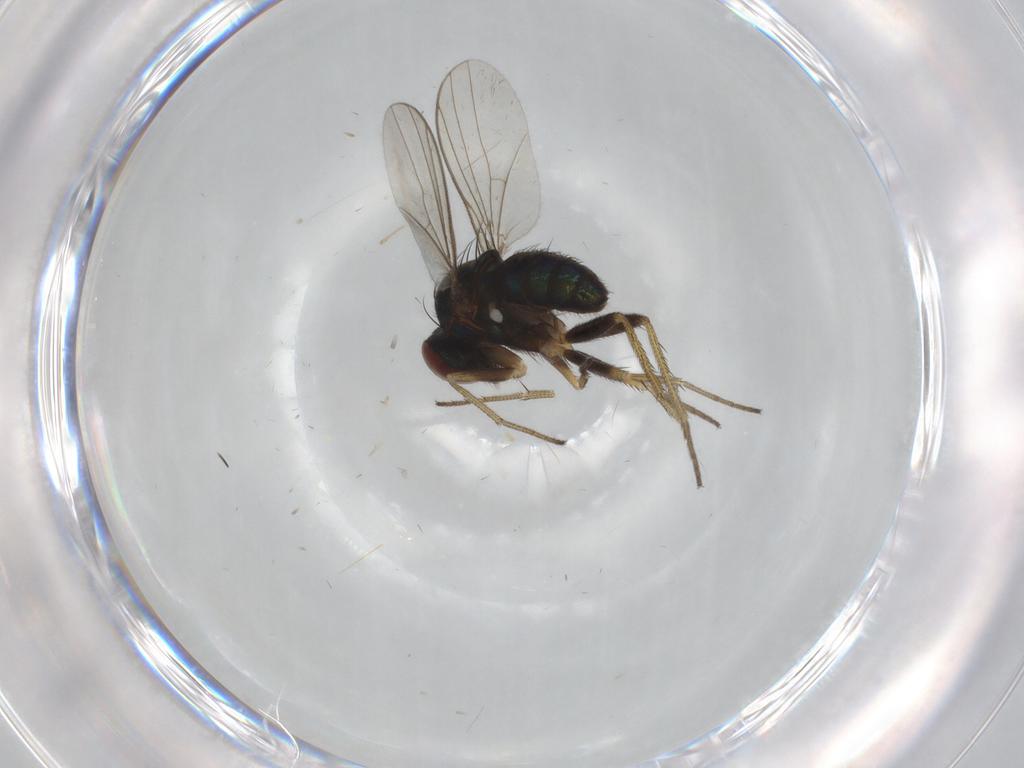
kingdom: Animalia
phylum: Arthropoda
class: Insecta
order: Diptera
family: Chironomidae
